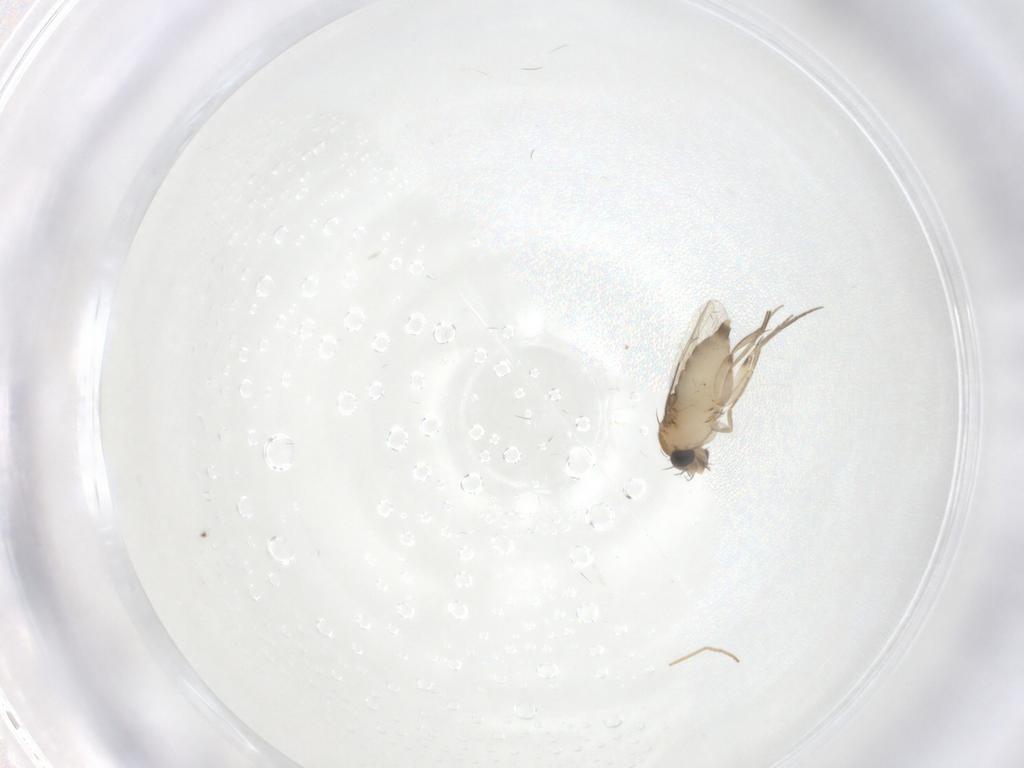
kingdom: Animalia
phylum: Arthropoda
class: Insecta
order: Diptera
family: Phoridae
